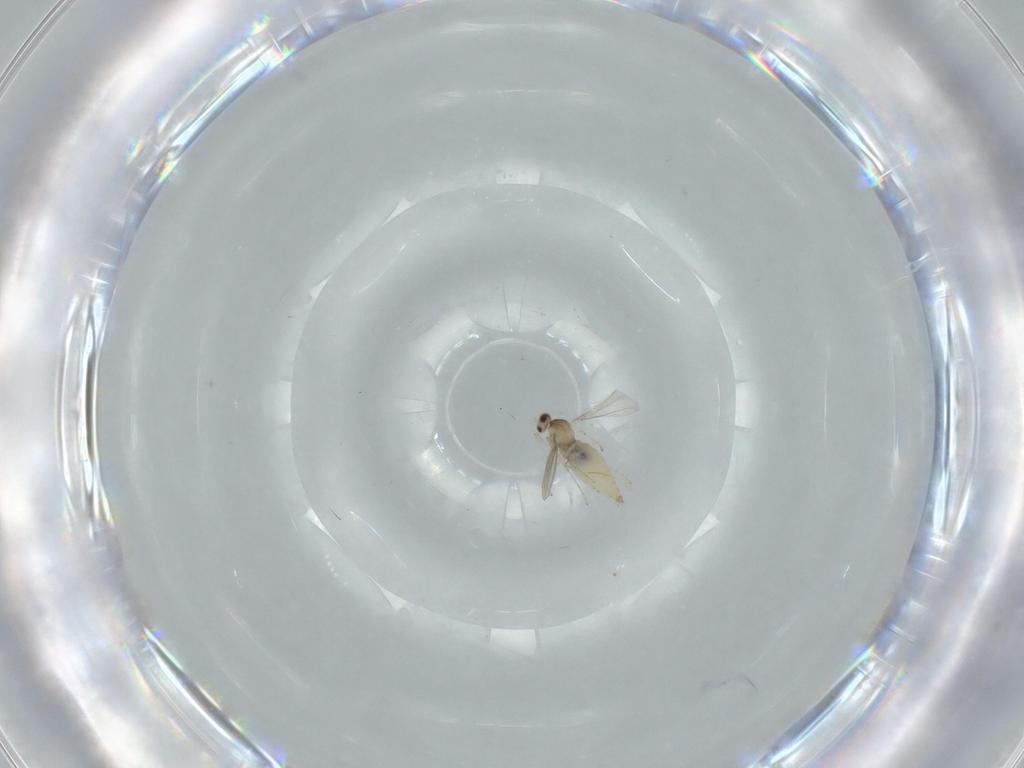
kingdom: Animalia
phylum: Arthropoda
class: Insecta
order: Diptera
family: Cecidomyiidae
